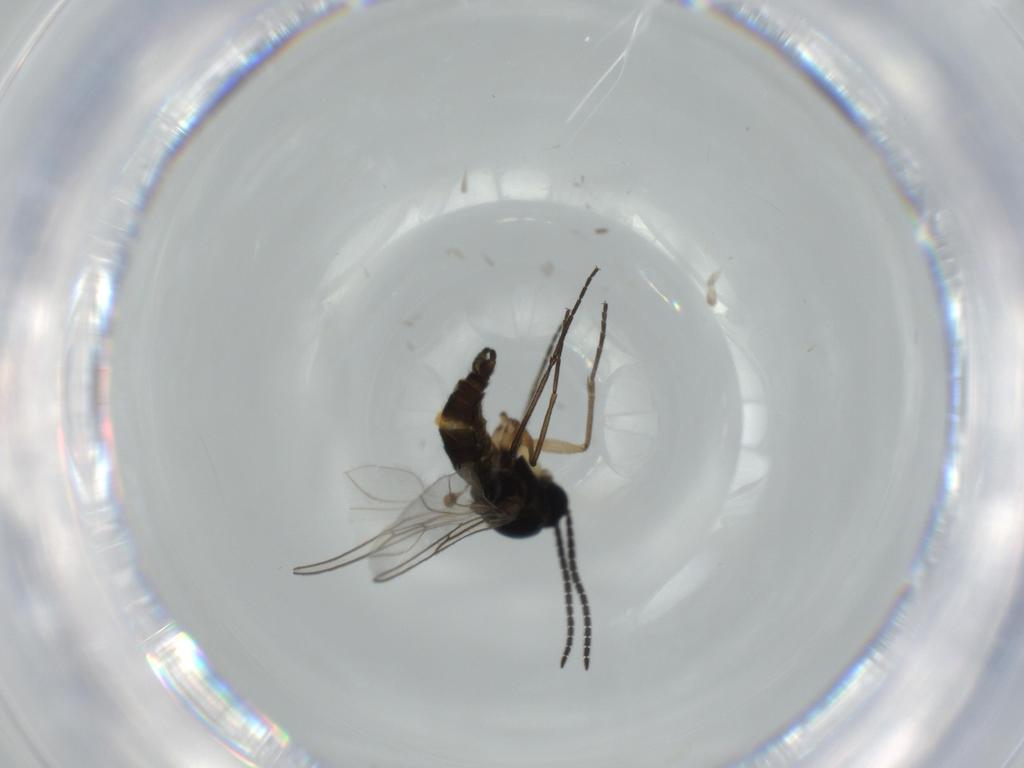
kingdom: Animalia
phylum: Arthropoda
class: Insecta
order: Diptera
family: Sciaridae
